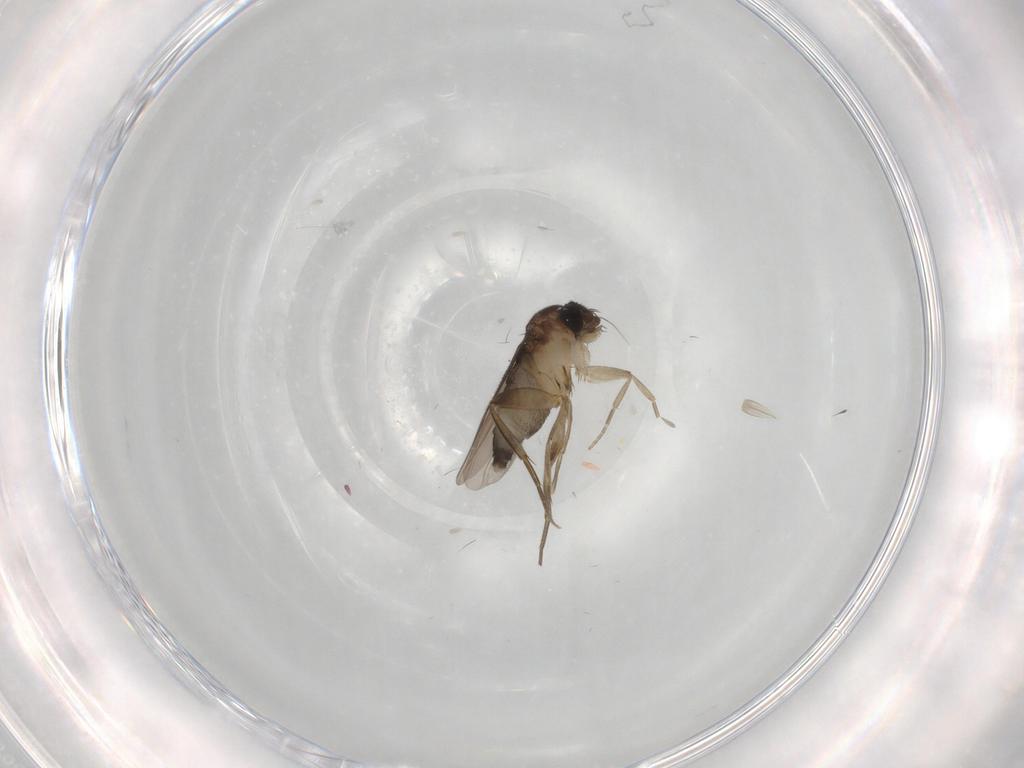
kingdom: Animalia
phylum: Arthropoda
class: Insecta
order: Diptera
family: Phoridae
